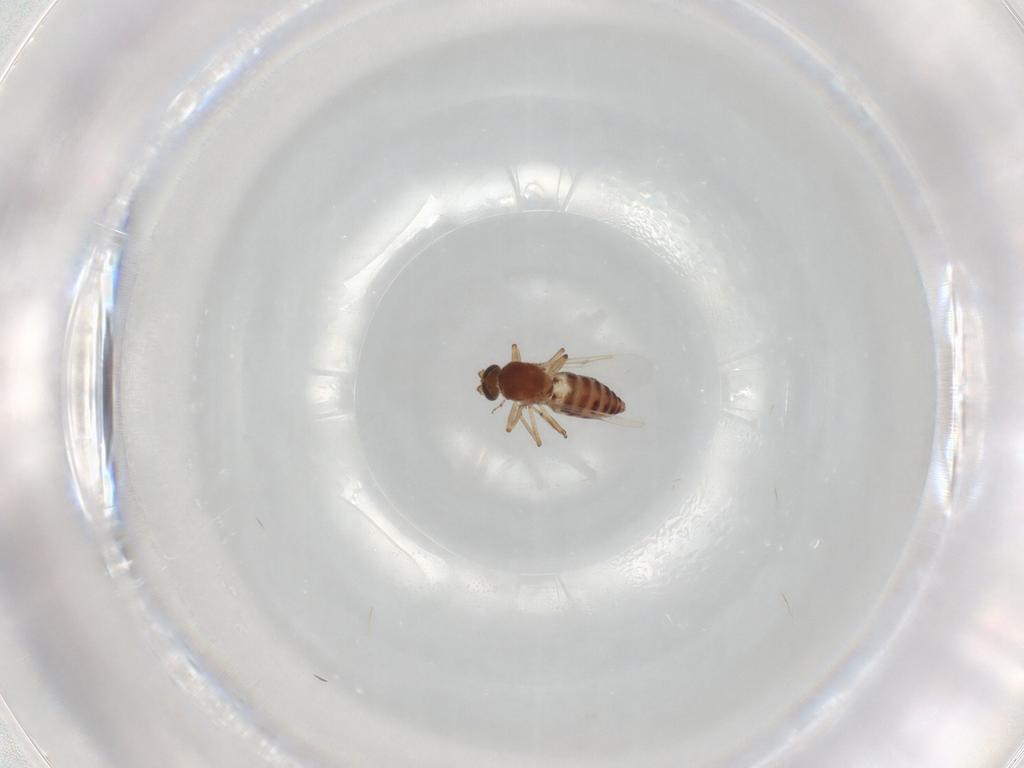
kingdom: Animalia
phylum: Arthropoda
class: Insecta
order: Diptera
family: Ceratopogonidae
